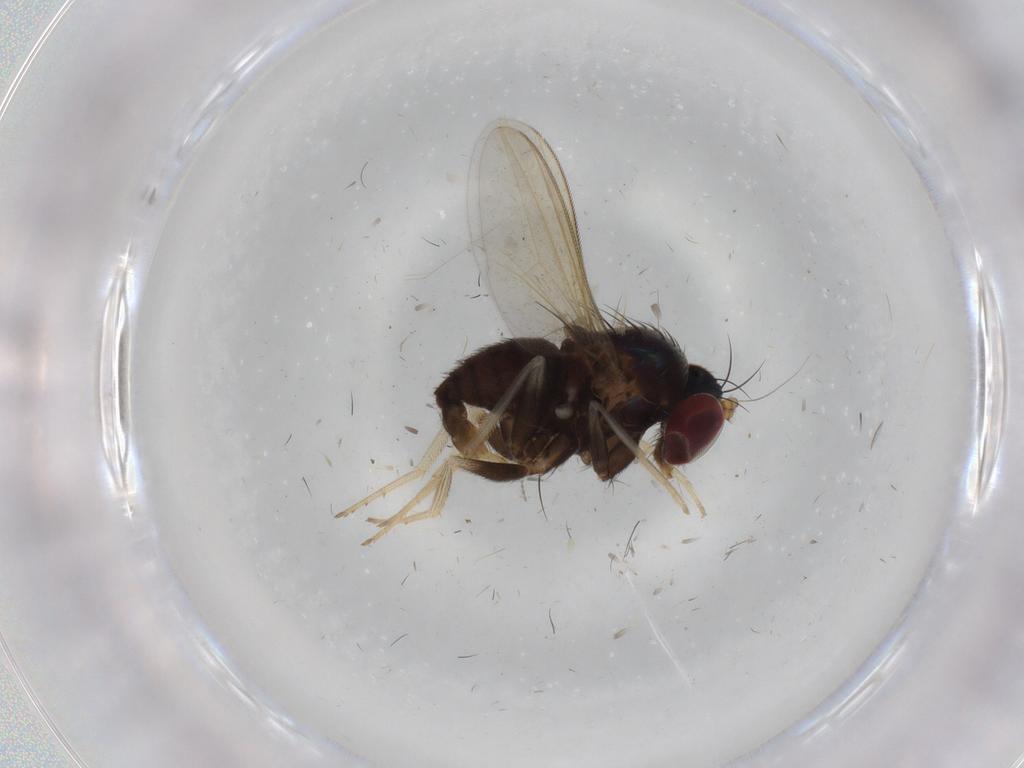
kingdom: Animalia
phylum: Arthropoda
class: Insecta
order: Diptera
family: Dolichopodidae
